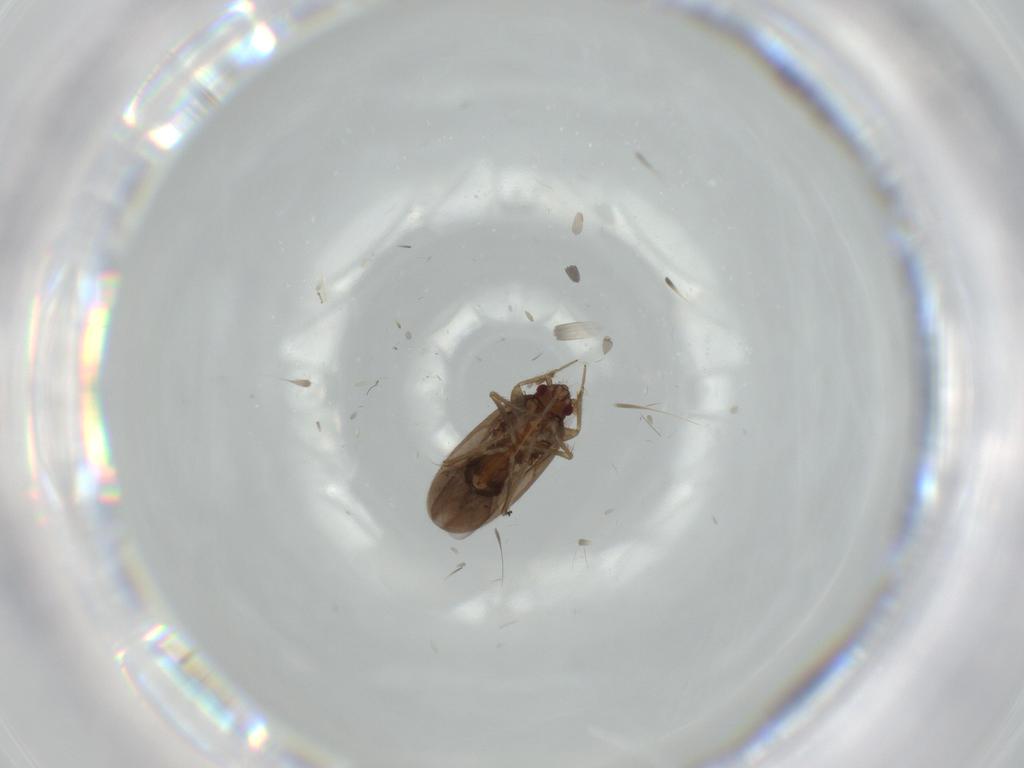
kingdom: Animalia
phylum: Arthropoda
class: Insecta
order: Hemiptera
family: Ceratocombidae
